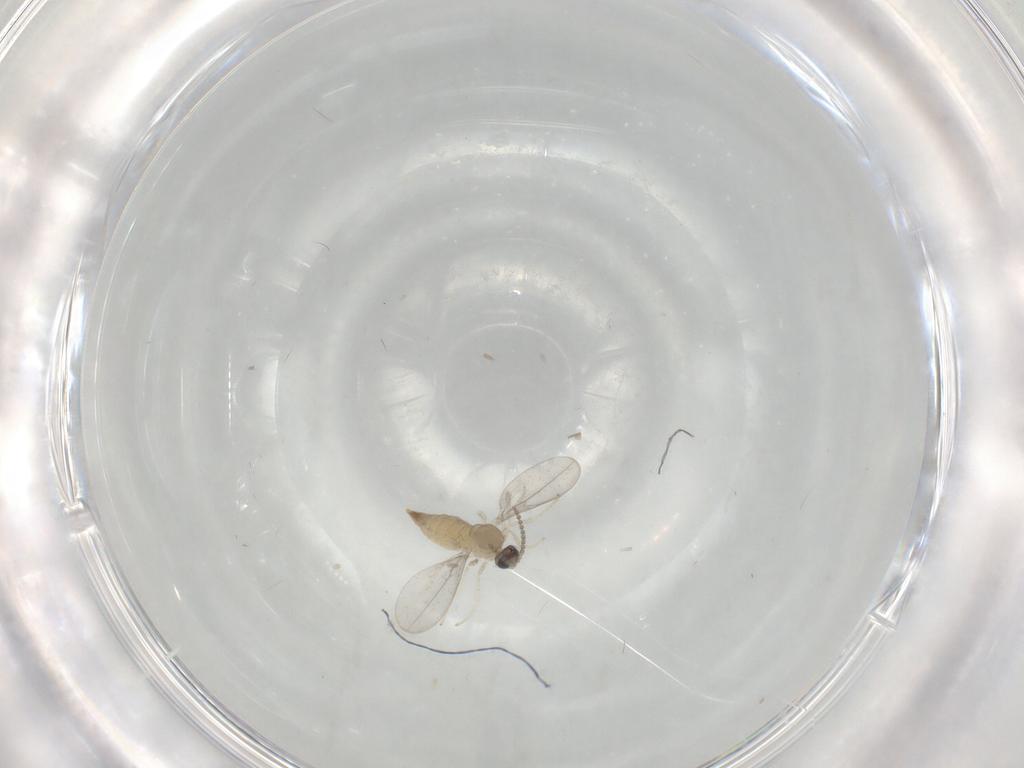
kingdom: Animalia
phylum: Arthropoda
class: Insecta
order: Diptera
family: Cecidomyiidae
